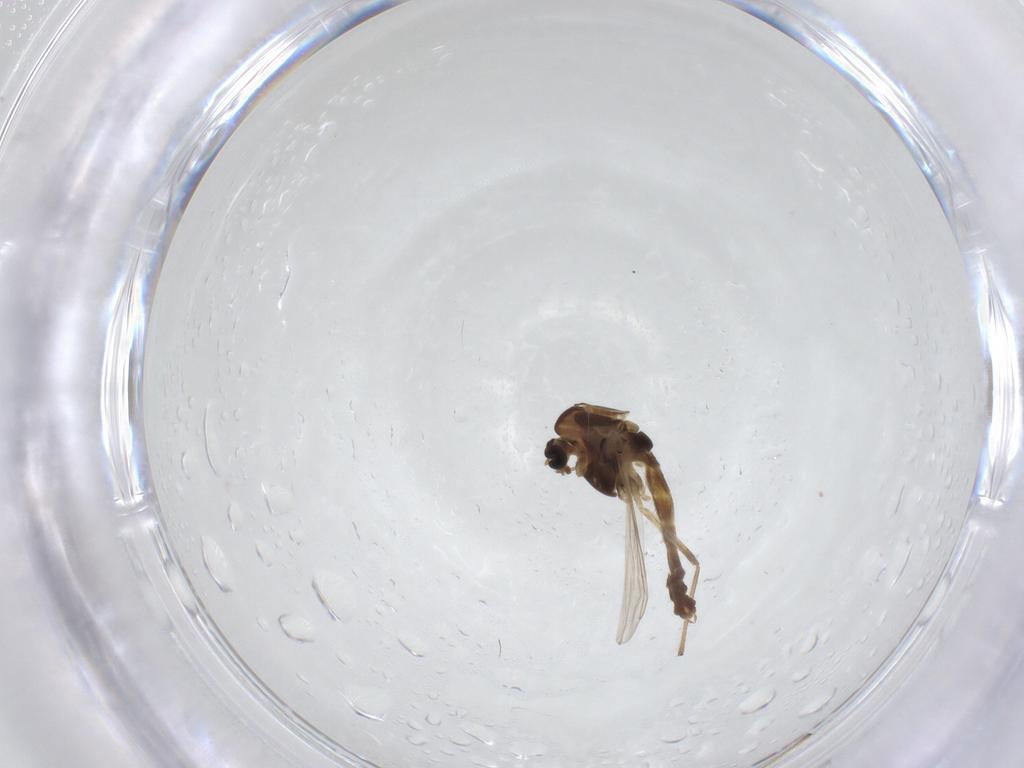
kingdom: Animalia
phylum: Arthropoda
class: Insecta
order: Diptera
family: Chironomidae
